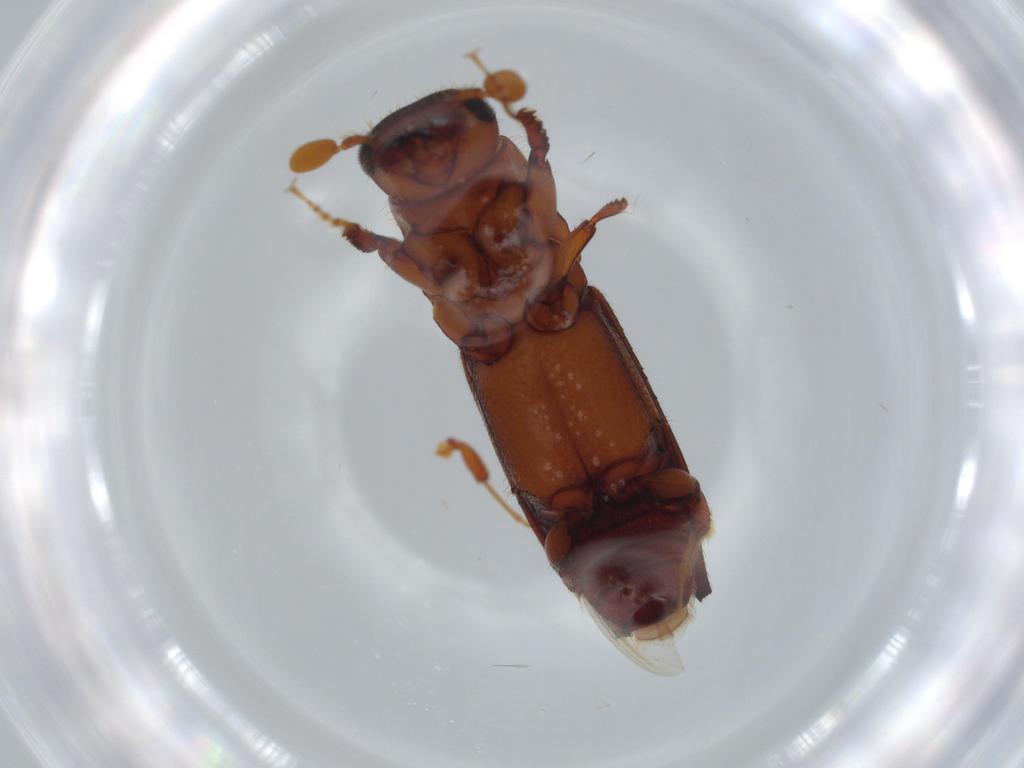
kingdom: Animalia
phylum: Arthropoda
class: Insecta
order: Coleoptera
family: Curculionidae
